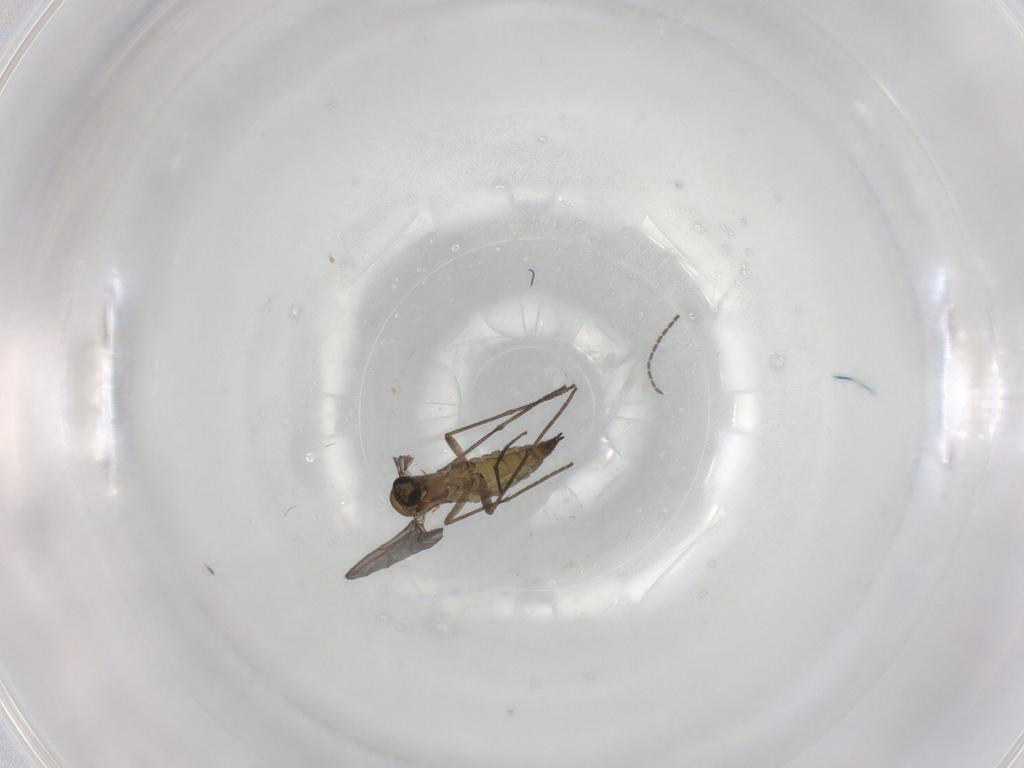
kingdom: Animalia
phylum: Arthropoda
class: Insecta
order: Diptera
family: Sciaridae
